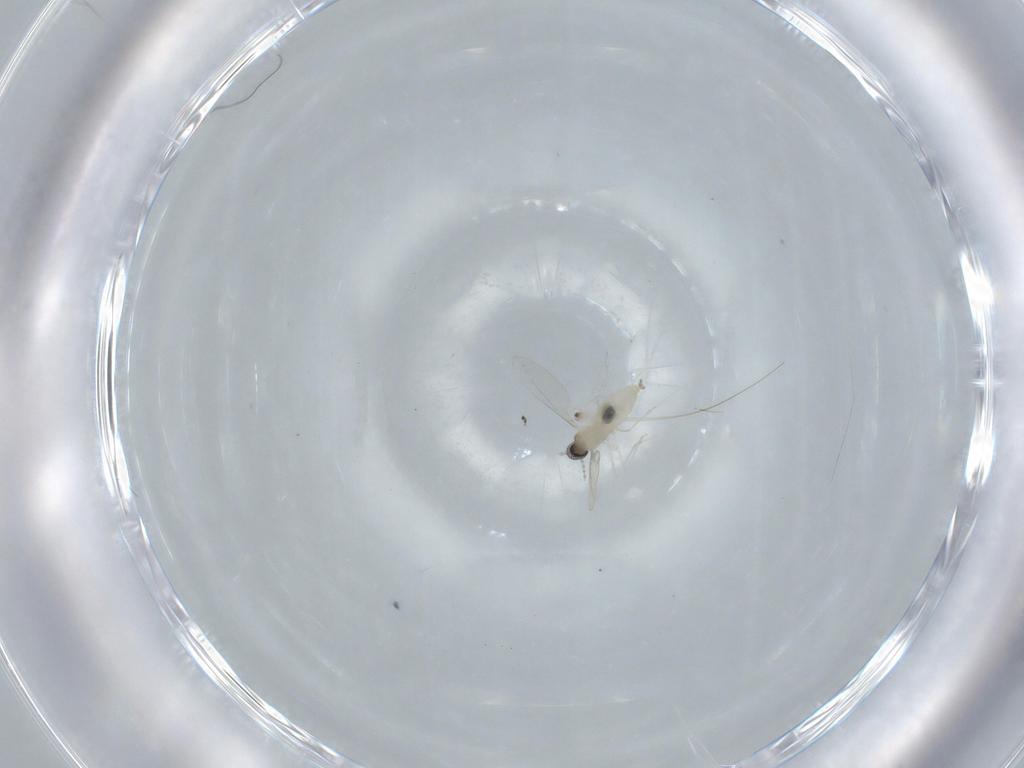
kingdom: Animalia
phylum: Arthropoda
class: Insecta
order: Diptera
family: Cecidomyiidae
